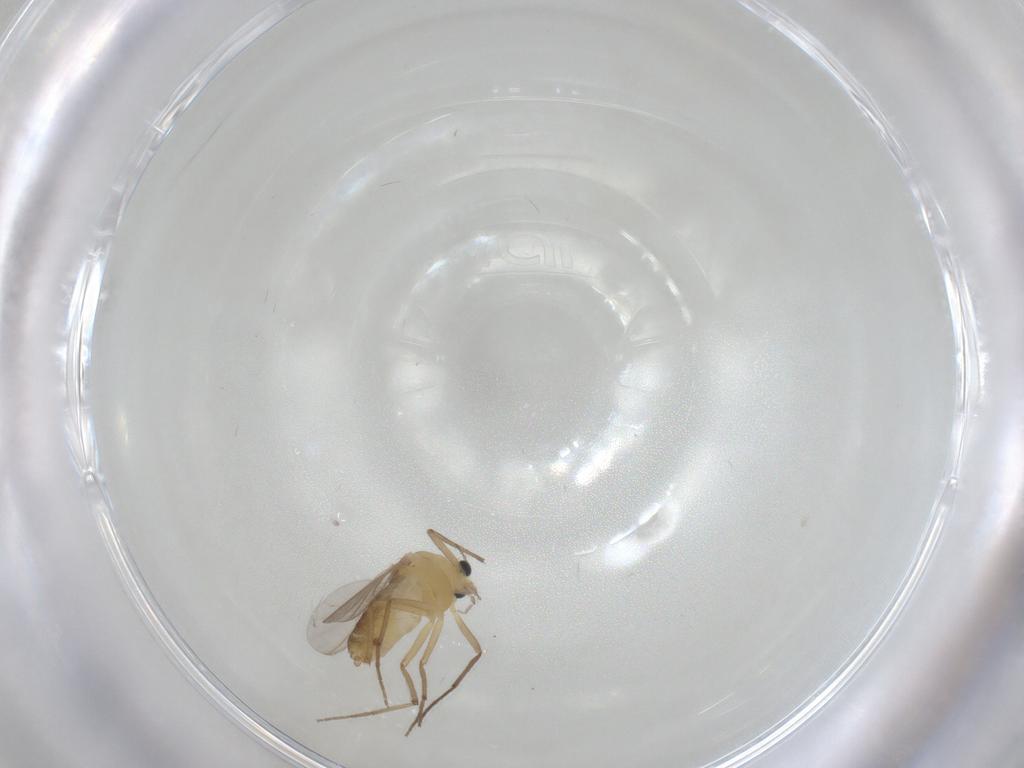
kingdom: Animalia
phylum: Arthropoda
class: Insecta
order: Diptera
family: Chironomidae
